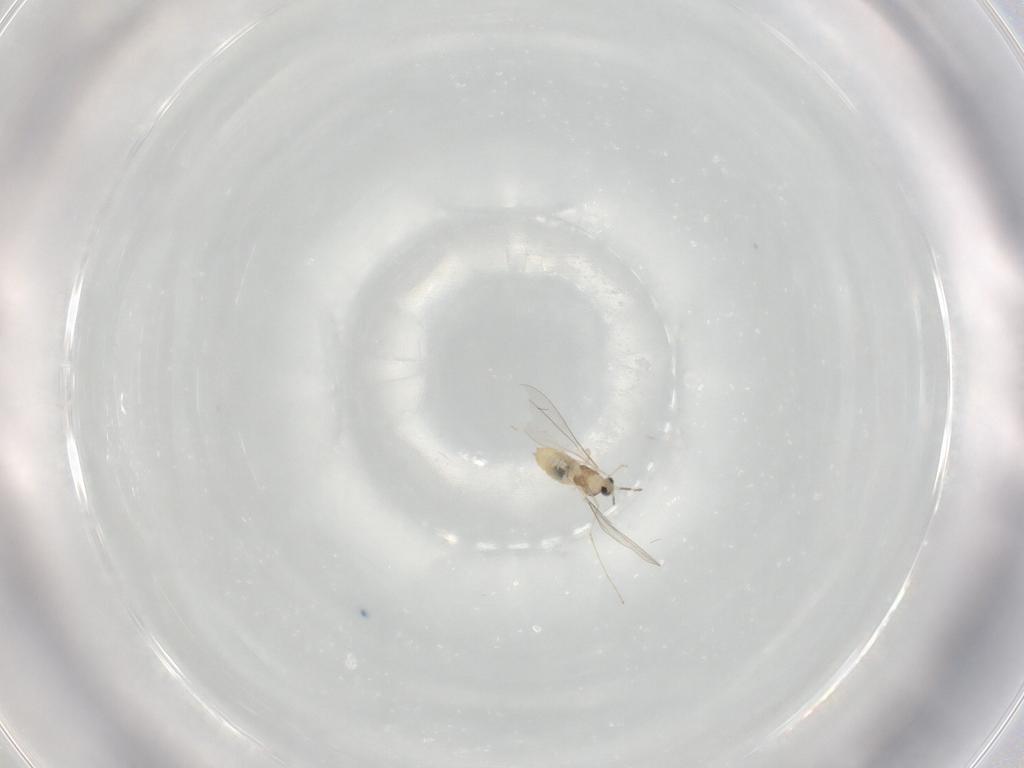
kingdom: Animalia
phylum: Arthropoda
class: Insecta
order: Diptera
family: Cecidomyiidae
